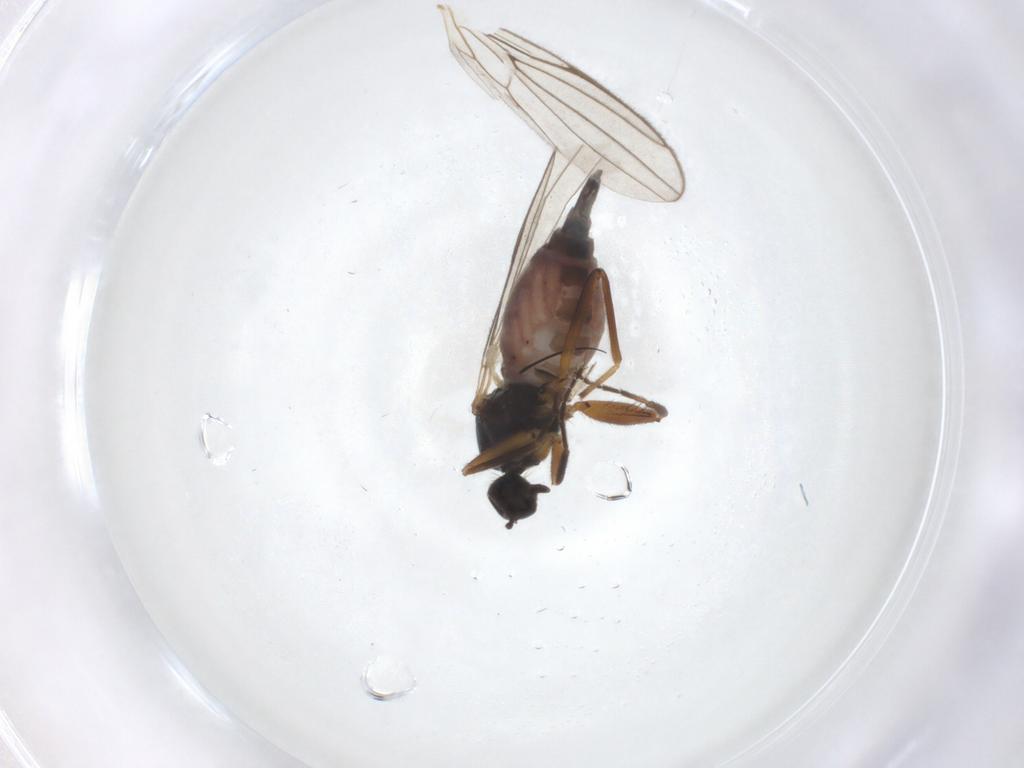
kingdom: Animalia
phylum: Arthropoda
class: Insecta
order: Diptera
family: Hybotidae
